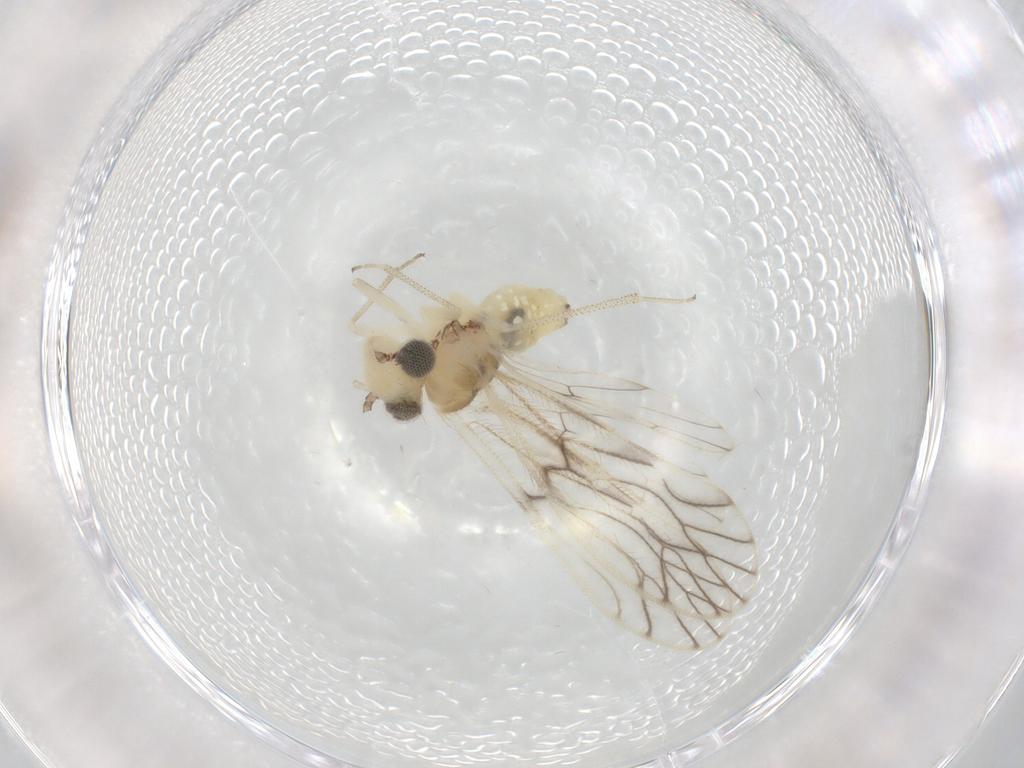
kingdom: Animalia
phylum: Arthropoda
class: Insecta
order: Psocodea
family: Philotarsidae
